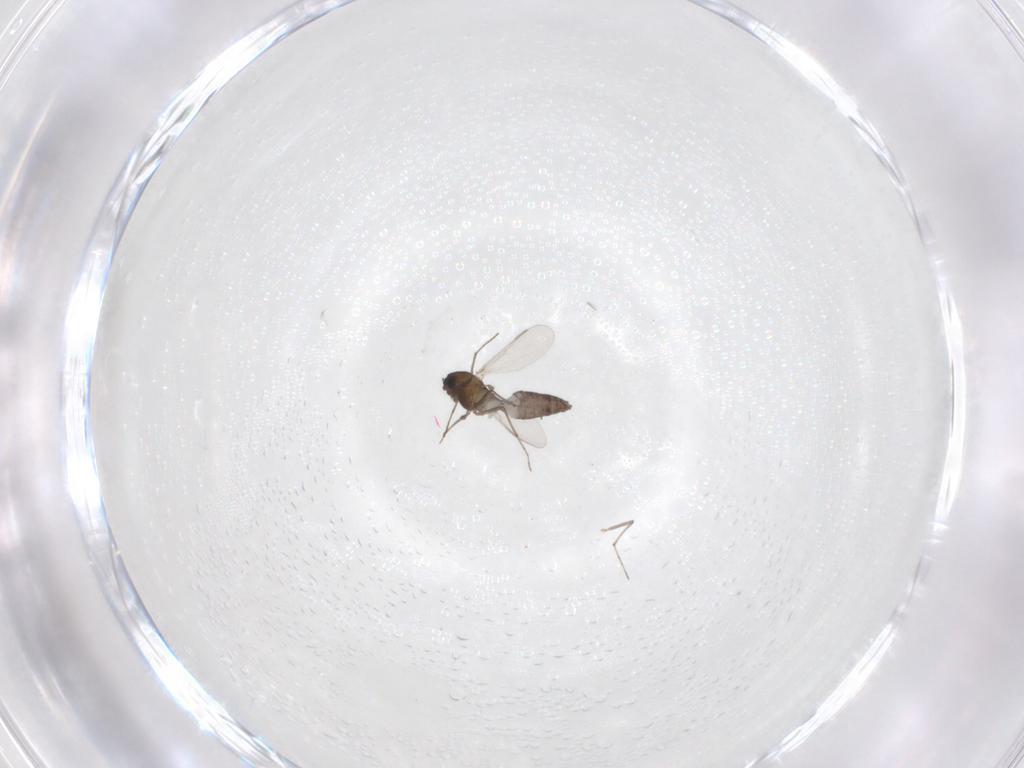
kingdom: Animalia
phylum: Arthropoda
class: Insecta
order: Diptera
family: Chironomidae
